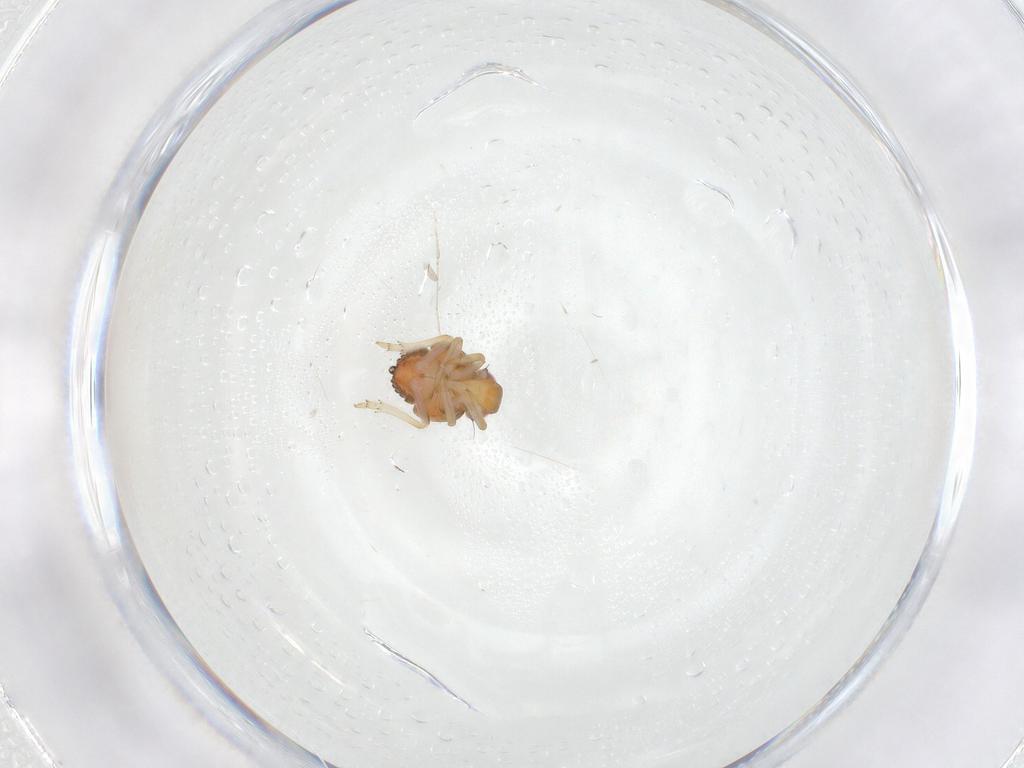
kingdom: Animalia
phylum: Arthropoda
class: Insecta
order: Hemiptera
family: Issidae
